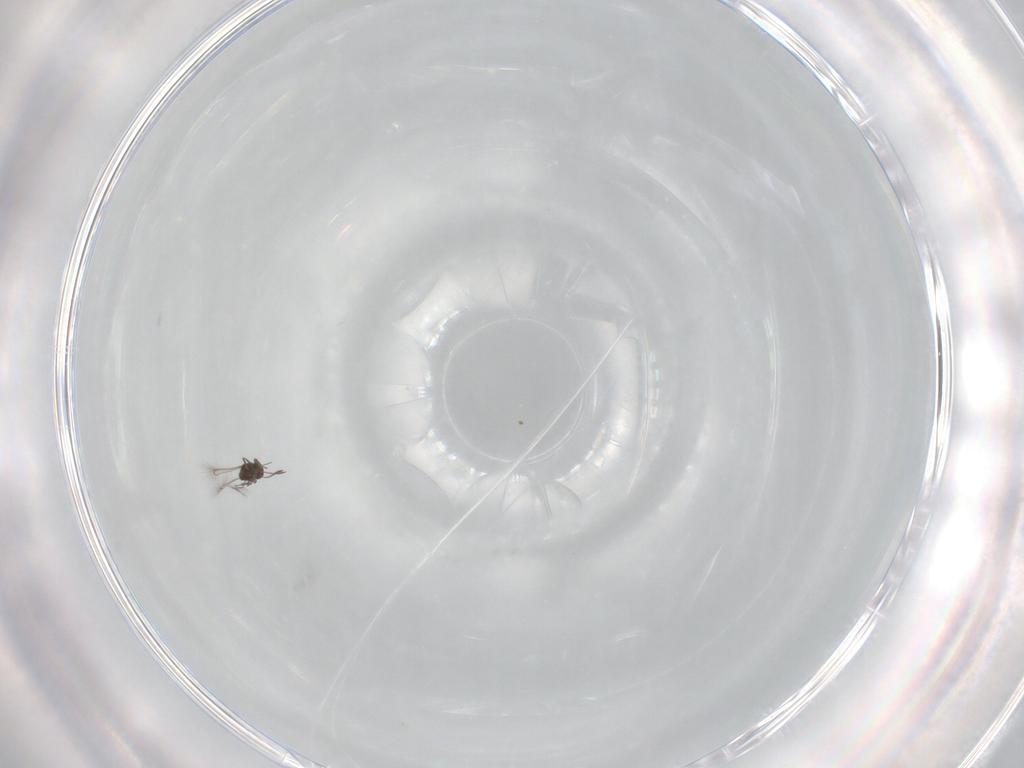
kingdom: Animalia
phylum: Arthropoda
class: Insecta
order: Hymenoptera
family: Mymaridae
